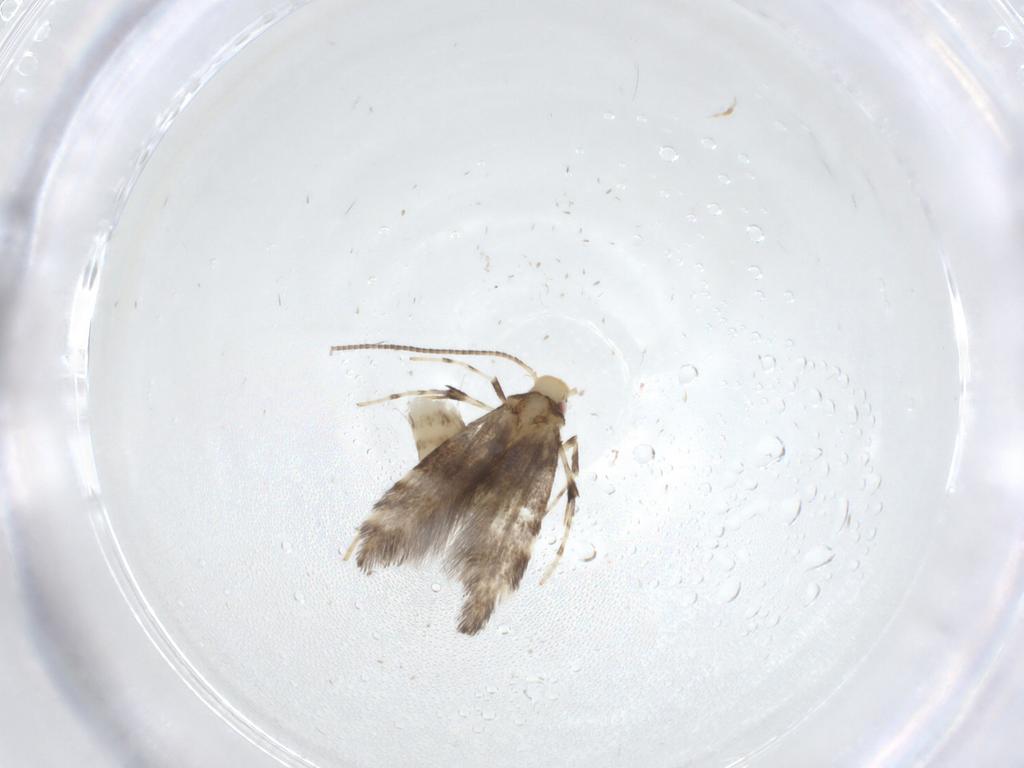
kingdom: Animalia
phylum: Arthropoda
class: Insecta
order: Lepidoptera
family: Gracillariidae
